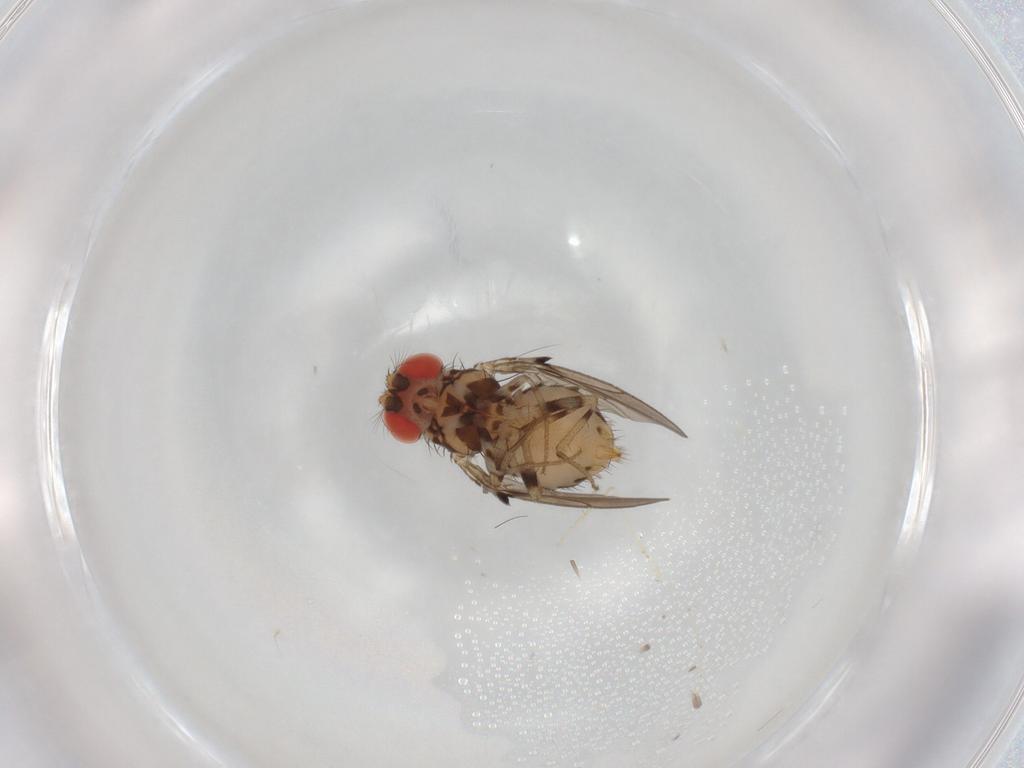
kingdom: Animalia
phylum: Arthropoda
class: Insecta
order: Diptera
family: Drosophilidae
